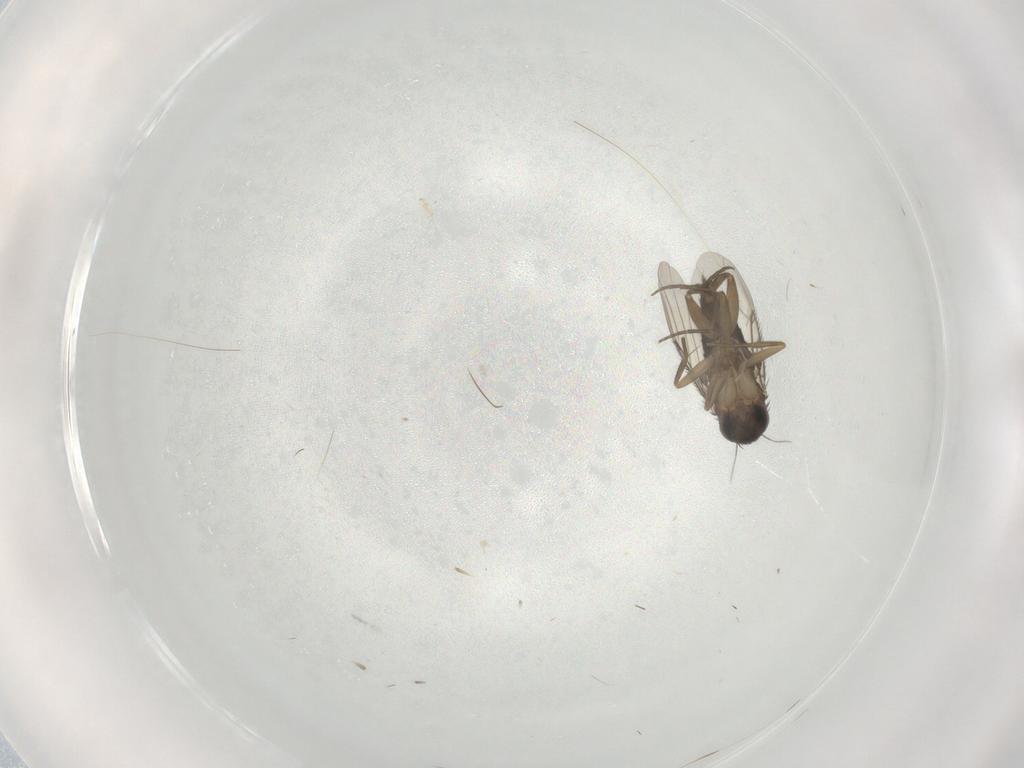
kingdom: Animalia
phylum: Arthropoda
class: Insecta
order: Diptera
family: Phoridae
